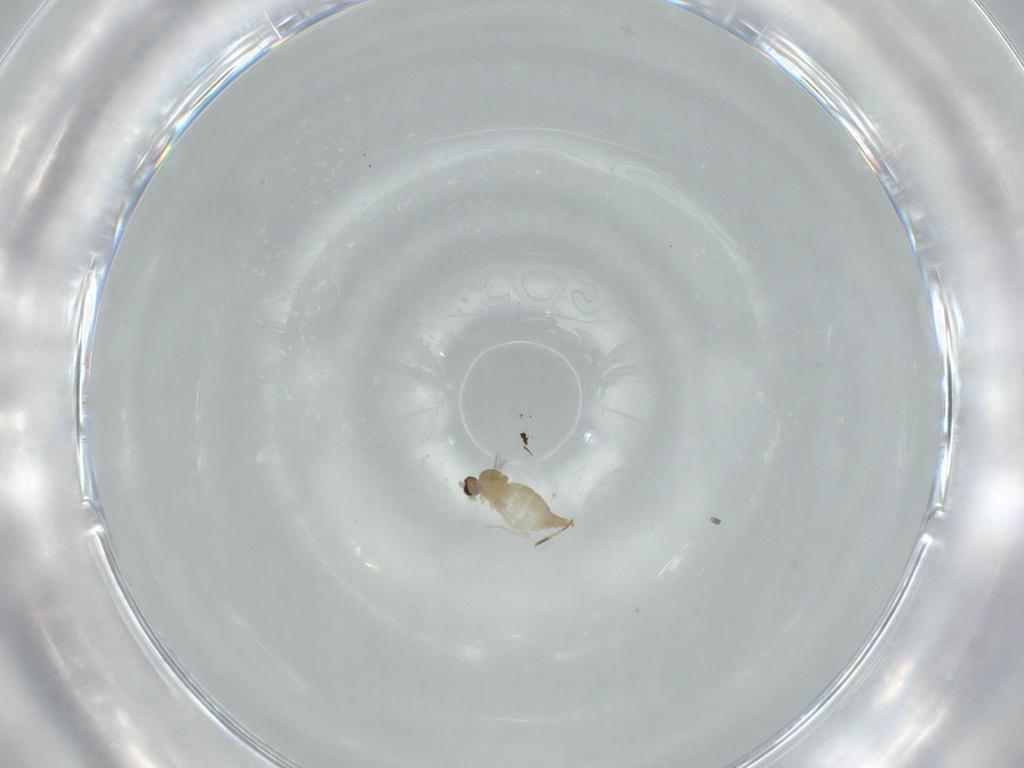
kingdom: Animalia
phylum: Arthropoda
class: Insecta
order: Diptera
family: Cecidomyiidae
